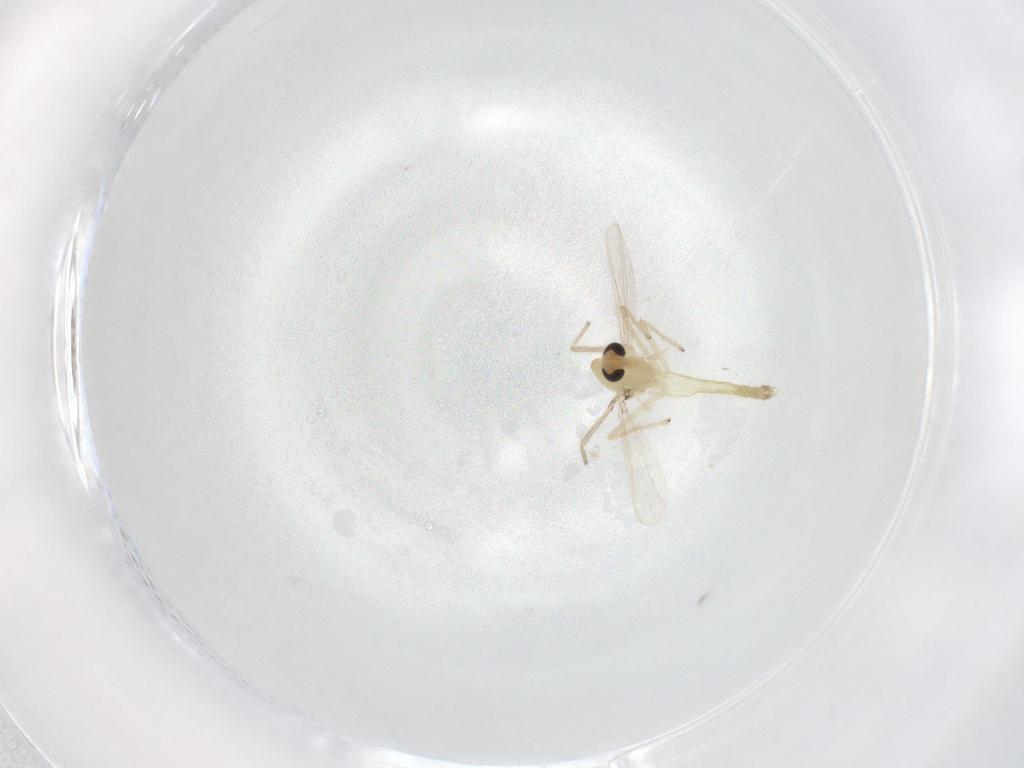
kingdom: Animalia
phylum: Arthropoda
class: Insecta
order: Diptera
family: Chironomidae
